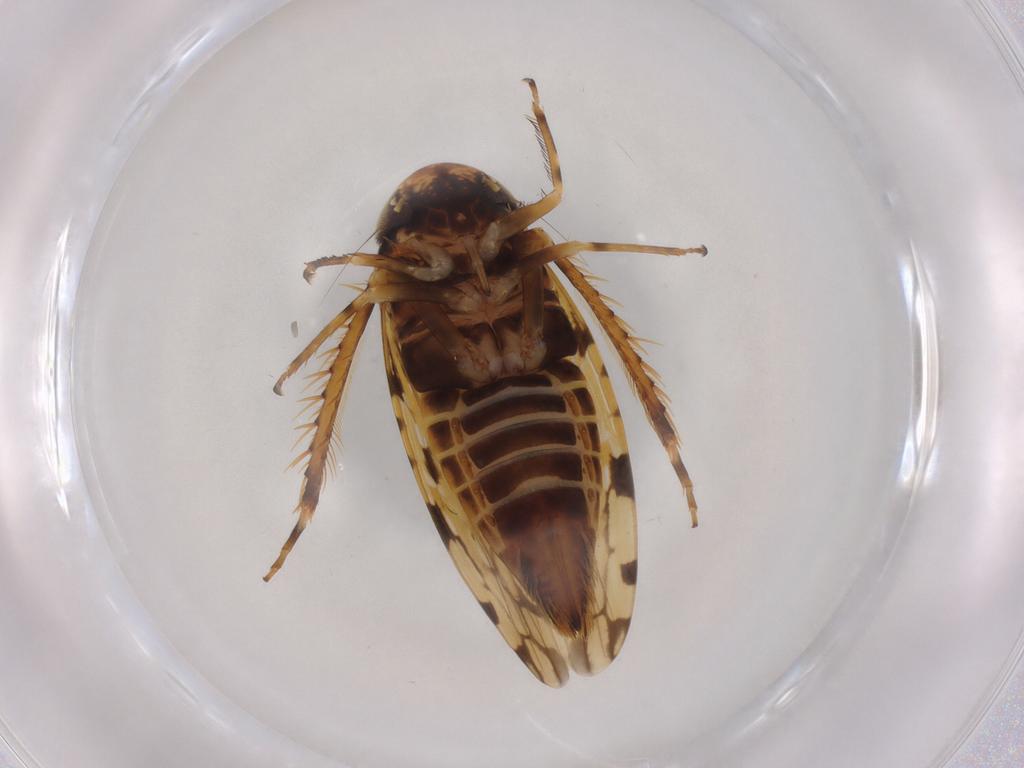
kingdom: Animalia
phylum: Arthropoda
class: Insecta
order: Hemiptera
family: Cicadellidae
